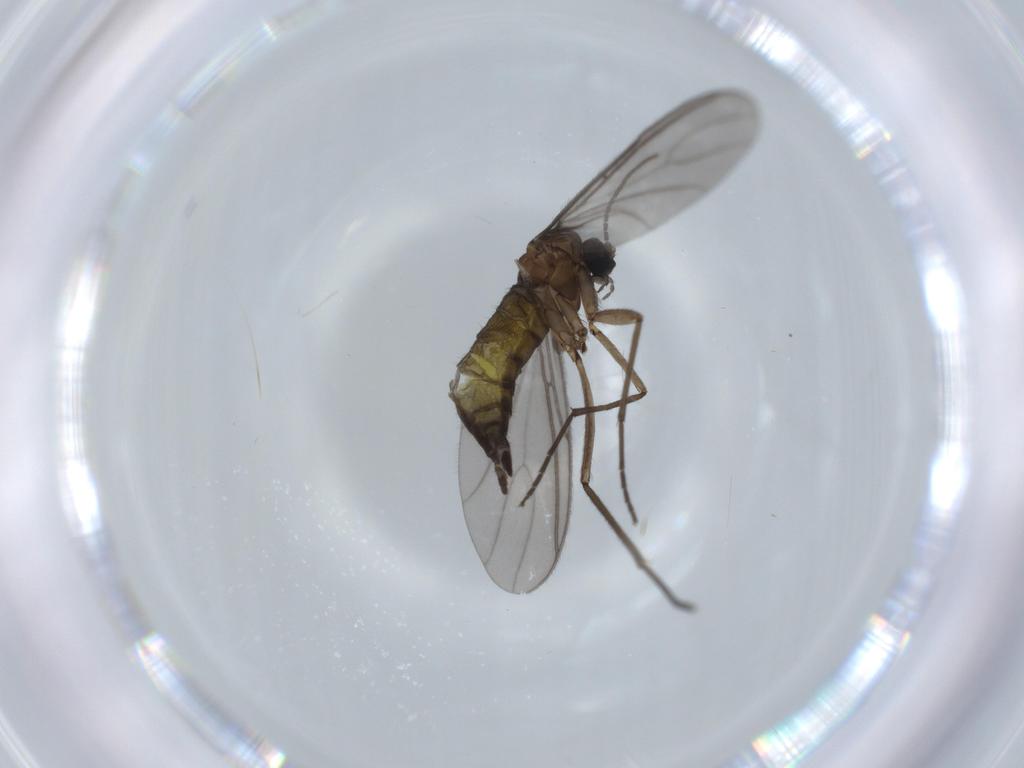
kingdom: Animalia
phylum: Arthropoda
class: Insecta
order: Diptera
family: Sciaridae
